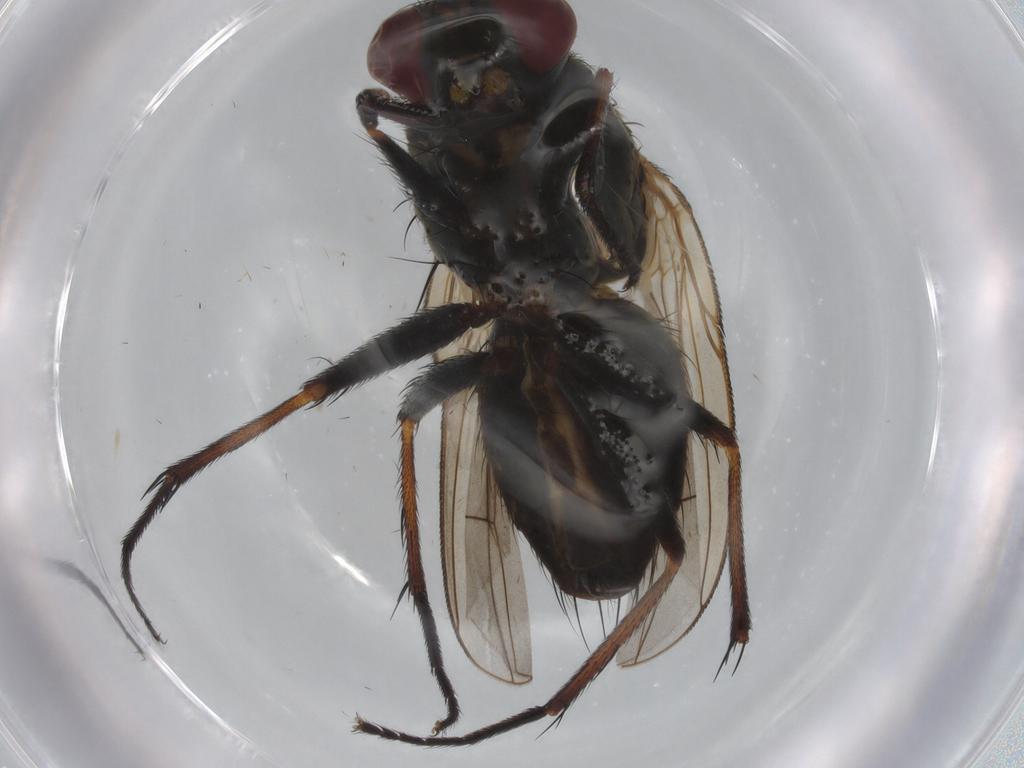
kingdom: Animalia
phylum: Arthropoda
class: Insecta
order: Diptera
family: Muscidae
